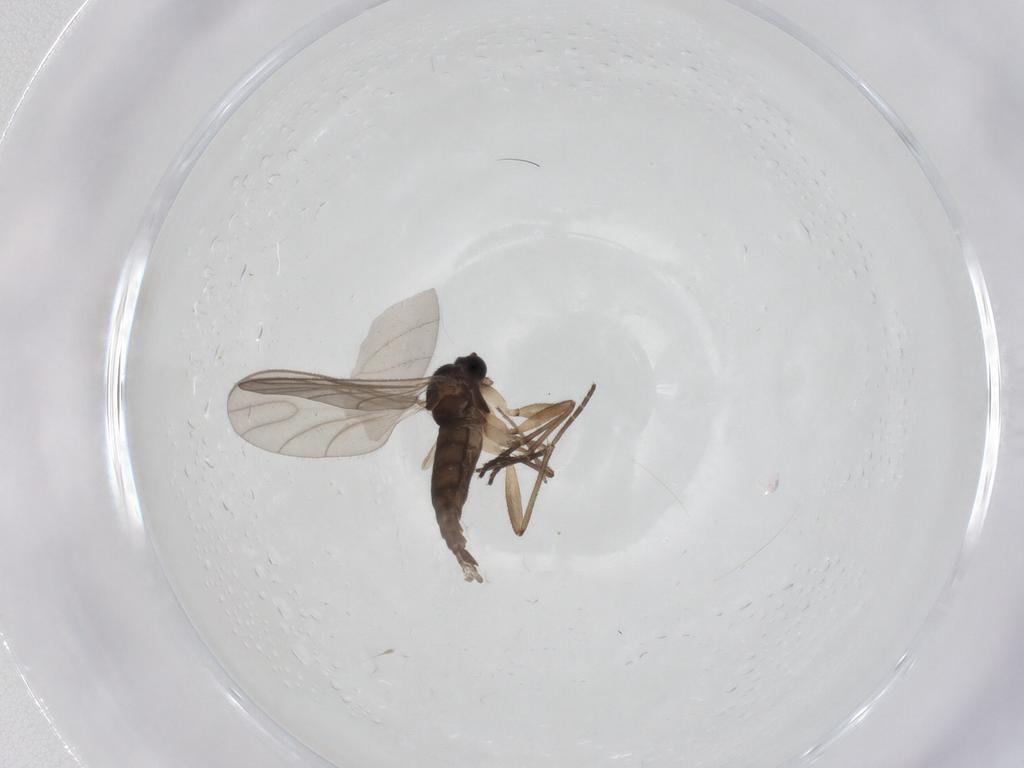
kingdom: Animalia
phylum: Arthropoda
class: Insecta
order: Diptera
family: Sciaridae
